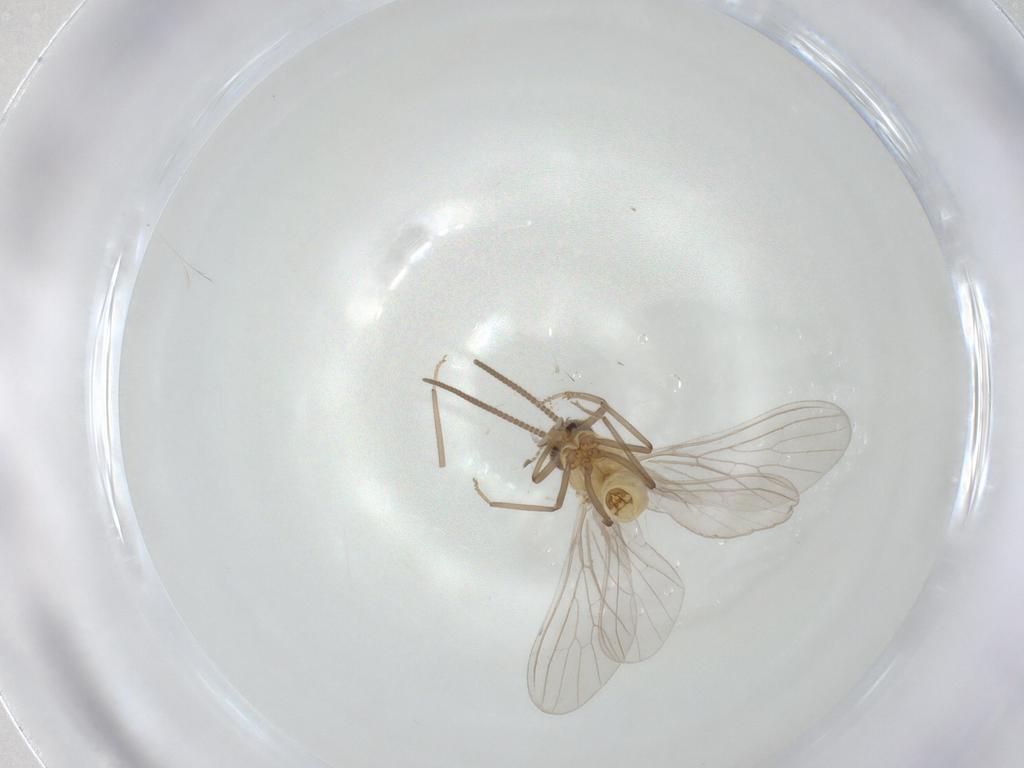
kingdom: Animalia
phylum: Arthropoda
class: Insecta
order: Neuroptera
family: Coniopterygidae
